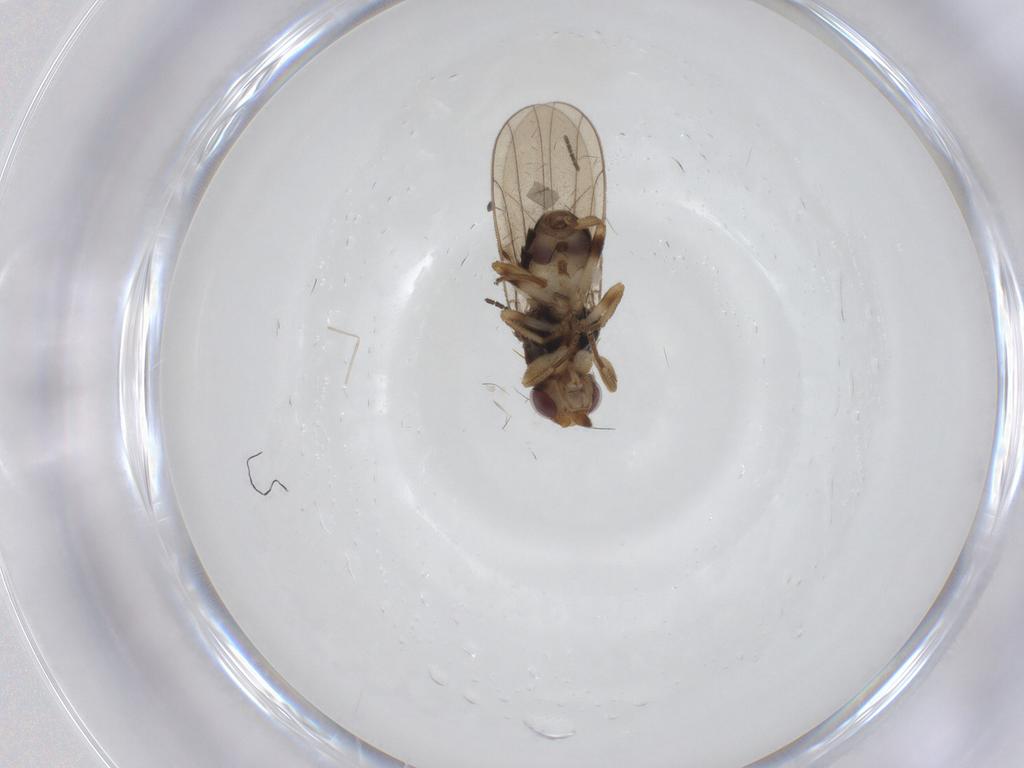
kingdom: Animalia
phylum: Arthropoda
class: Insecta
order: Diptera
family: Chloropidae
